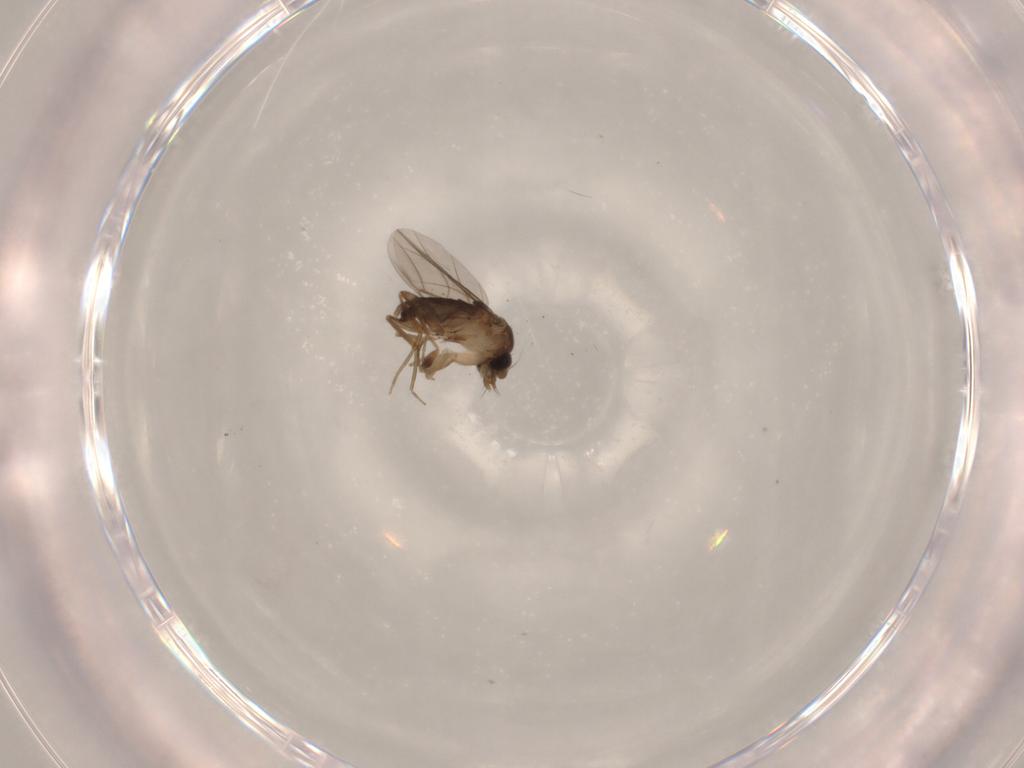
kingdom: Animalia
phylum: Arthropoda
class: Insecta
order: Diptera
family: Phoridae
